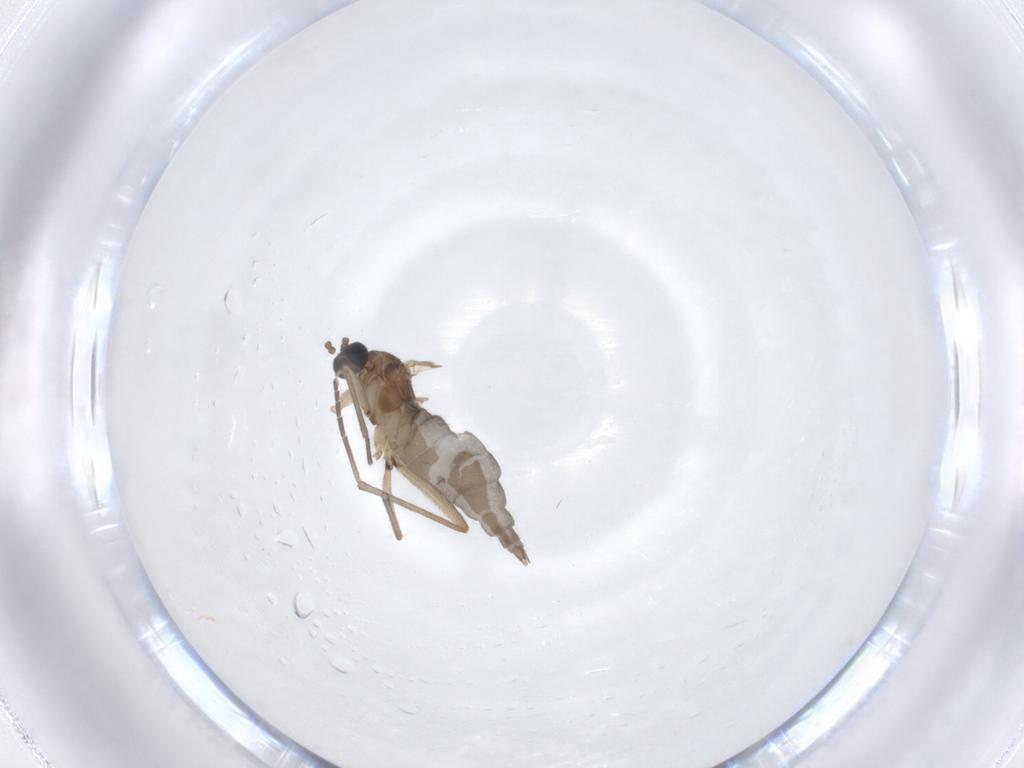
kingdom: Animalia
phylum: Arthropoda
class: Insecta
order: Diptera
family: Sciaridae
